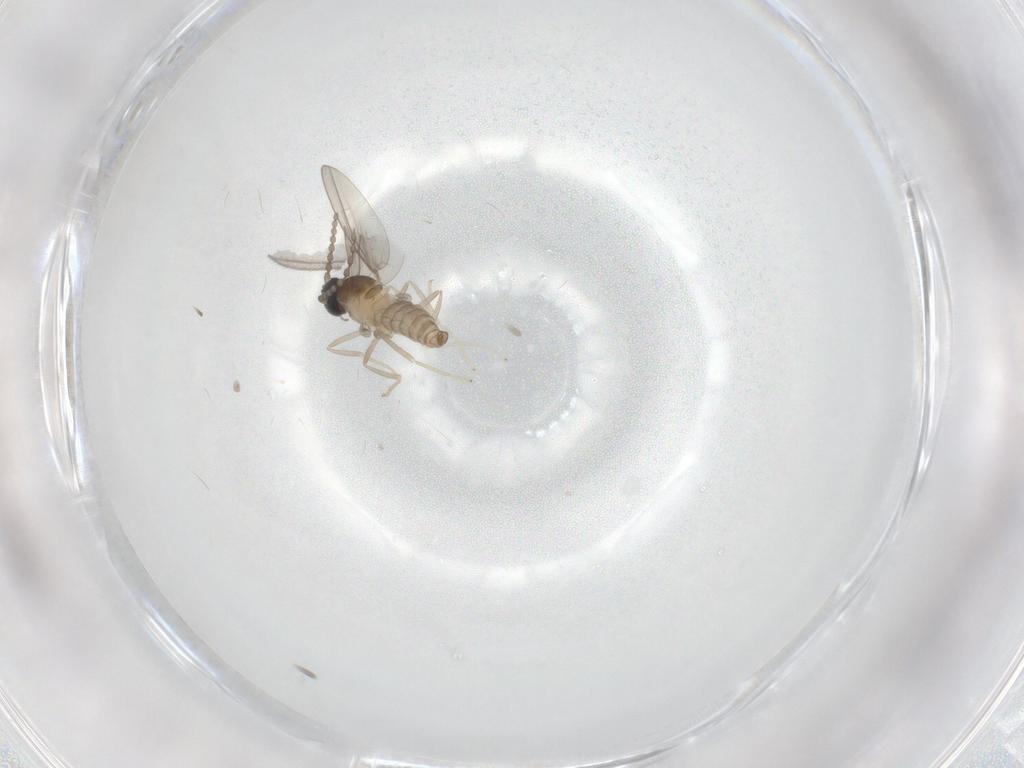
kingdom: Animalia
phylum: Arthropoda
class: Insecta
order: Diptera
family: Sciaridae
